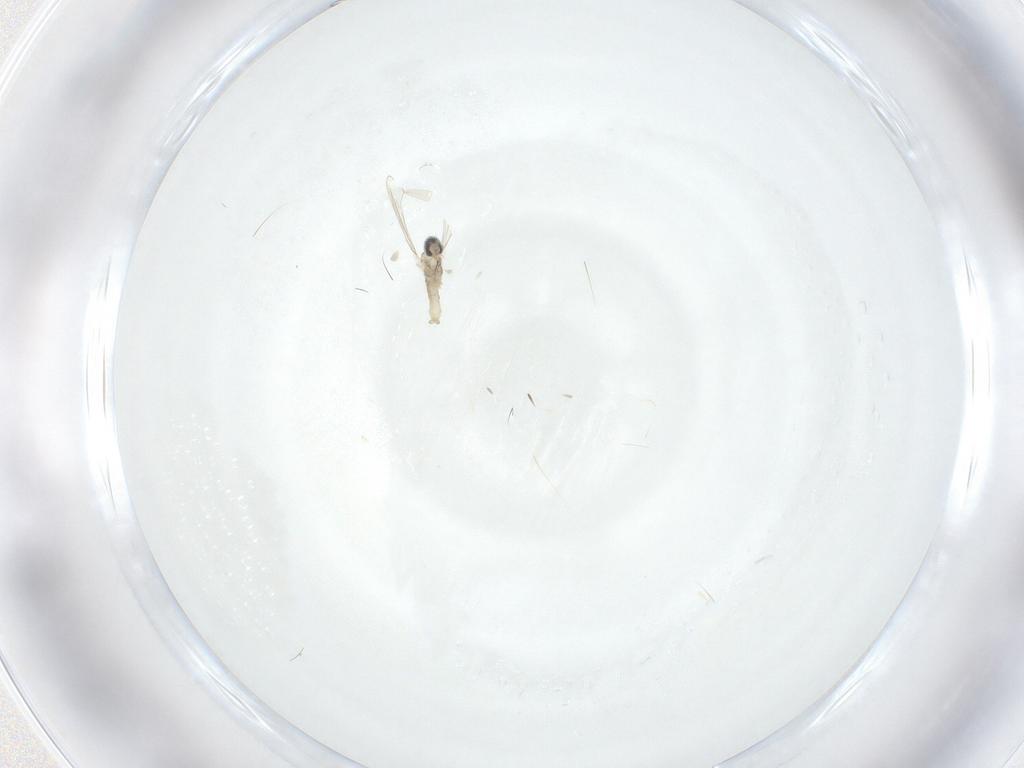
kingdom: Animalia
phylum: Arthropoda
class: Insecta
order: Diptera
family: Cecidomyiidae
